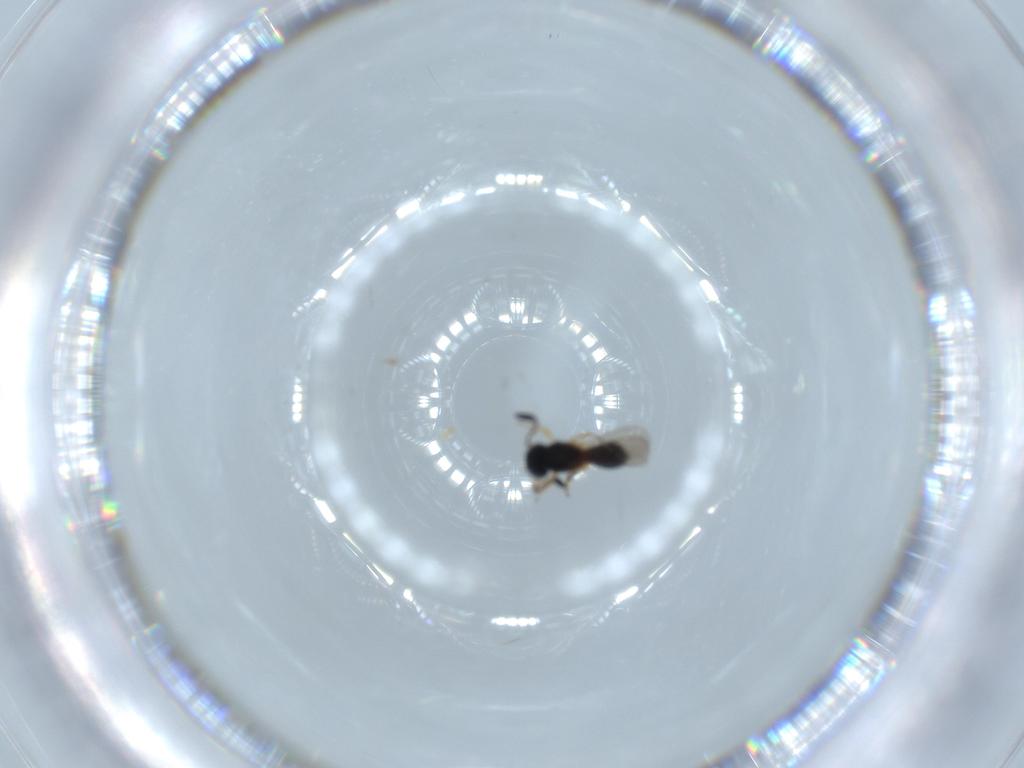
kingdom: Animalia
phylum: Arthropoda
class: Insecta
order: Hymenoptera
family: Scelionidae
